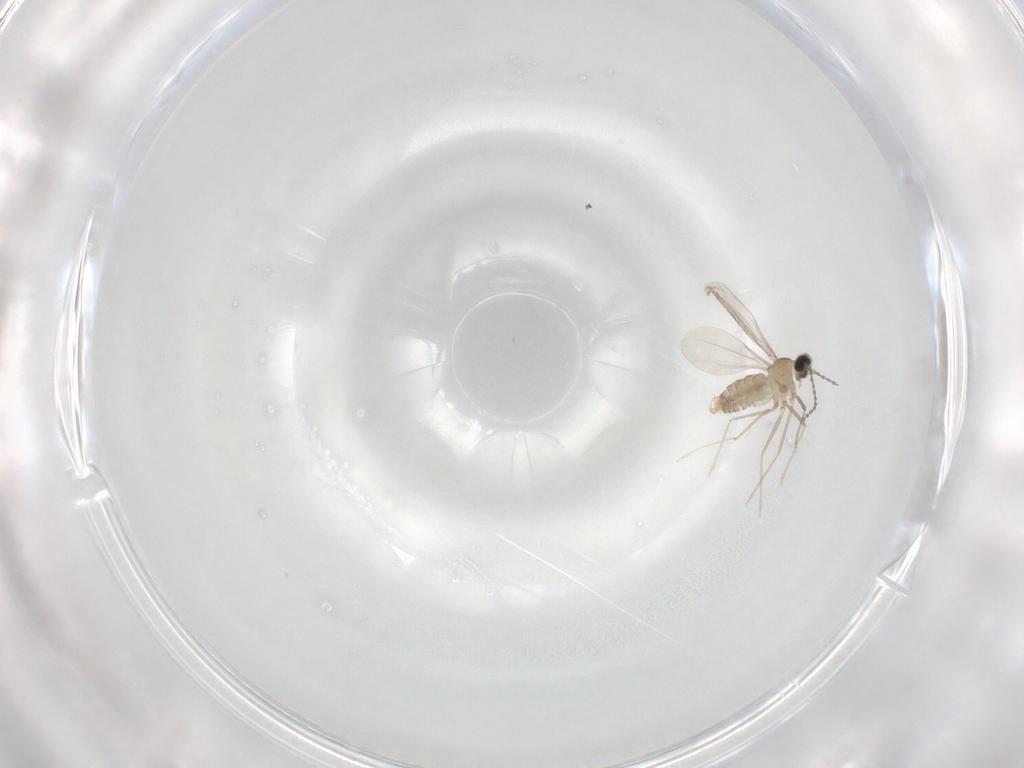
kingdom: Animalia
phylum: Arthropoda
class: Insecta
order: Diptera
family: Cecidomyiidae
